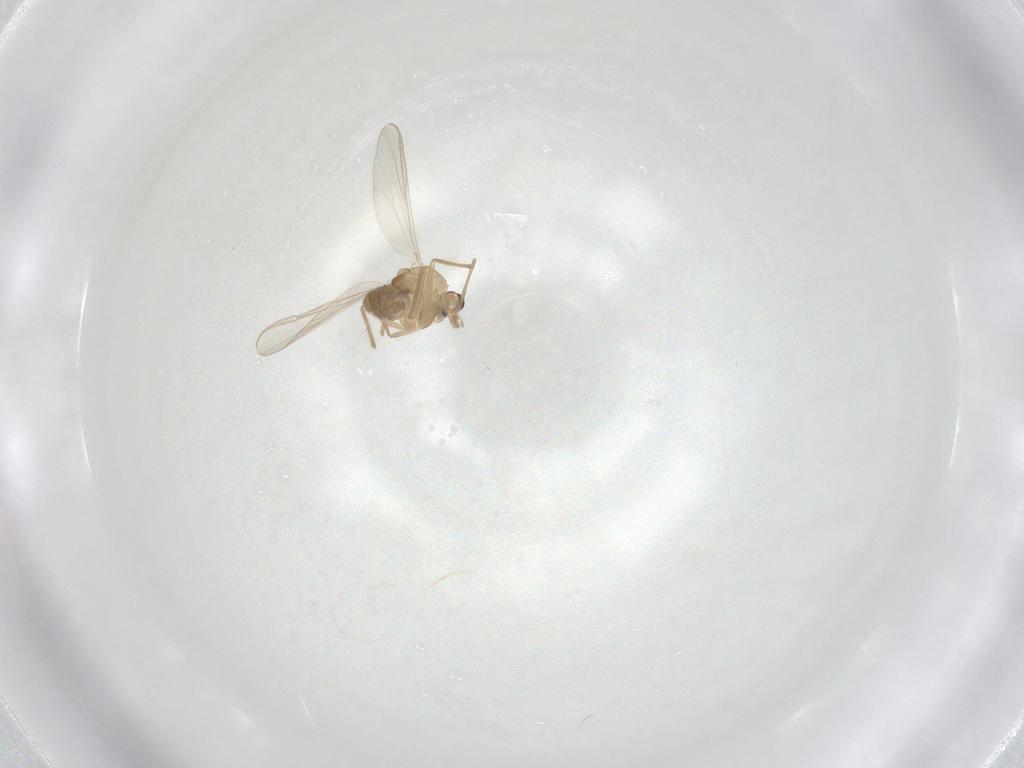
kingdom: Animalia
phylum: Arthropoda
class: Insecta
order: Diptera
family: Chironomidae
